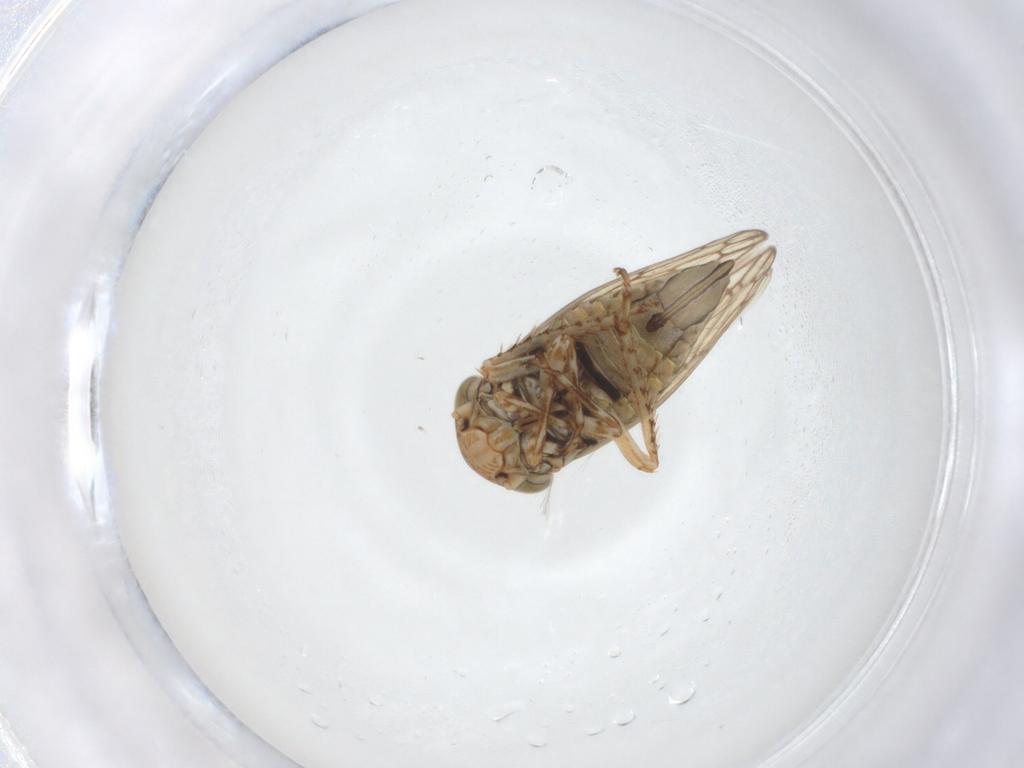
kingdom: Animalia
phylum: Arthropoda
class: Insecta
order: Hemiptera
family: Cicadellidae
